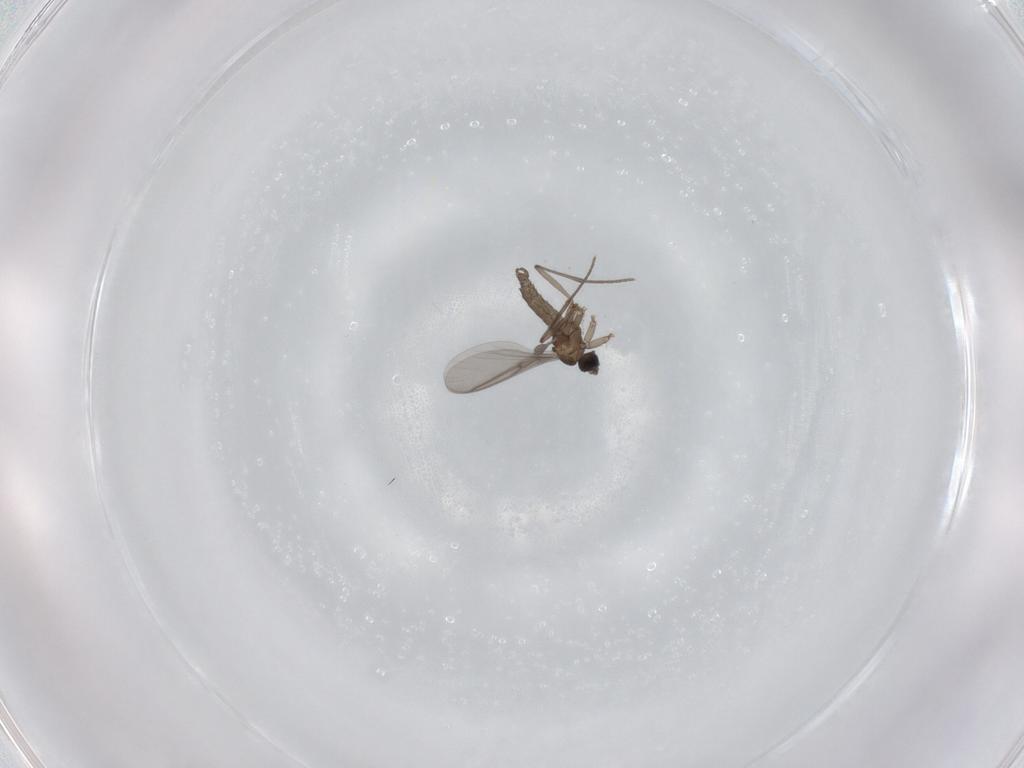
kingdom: Animalia
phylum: Arthropoda
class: Insecta
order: Diptera
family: Sciaridae
